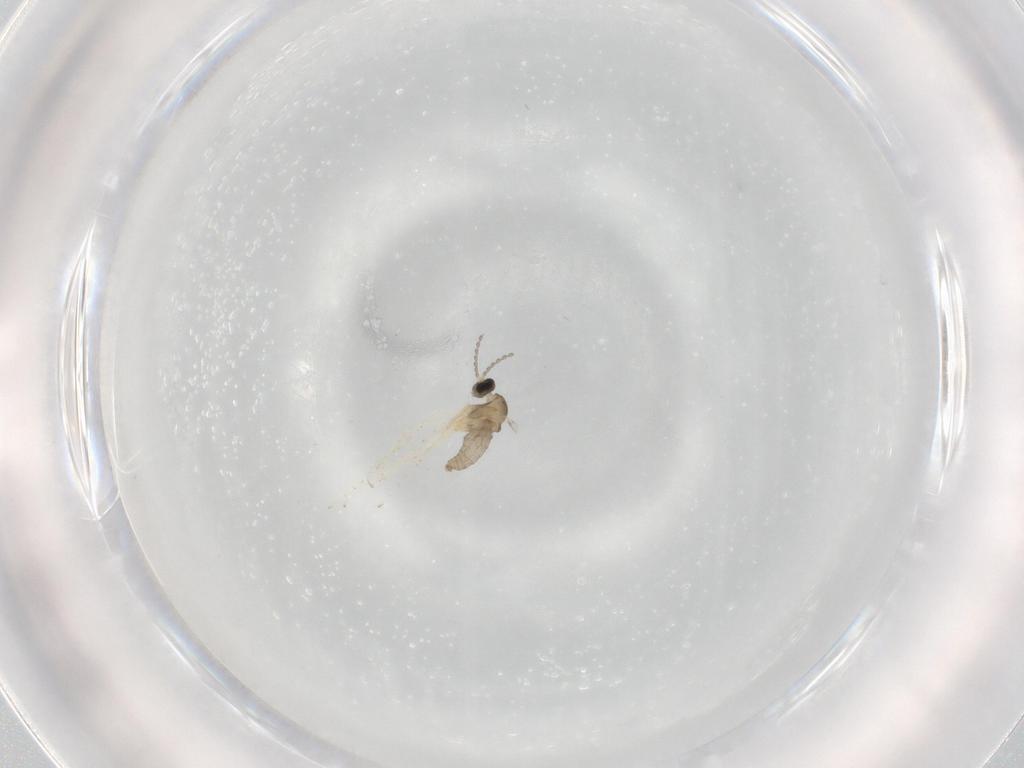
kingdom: Animalia
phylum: Arthropoda
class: Insecta
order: Diptera
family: Cecidomyiidae
